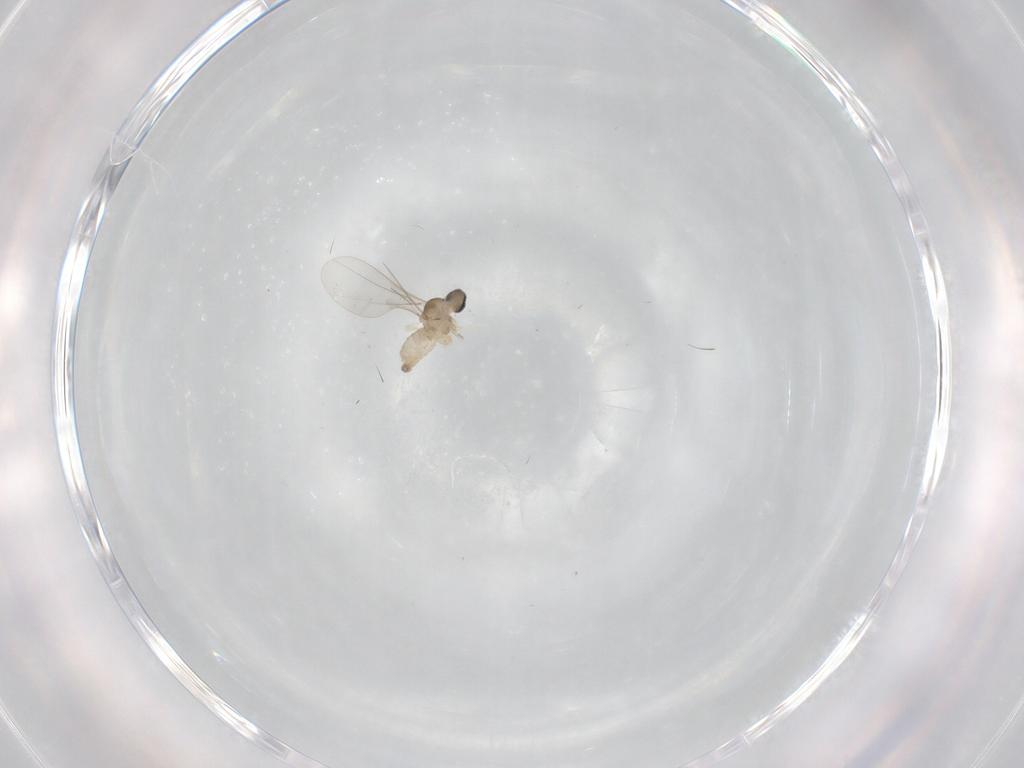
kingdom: Animalia
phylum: Arthropoda
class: Insecta
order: Diptera
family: Cecidomyiidae
